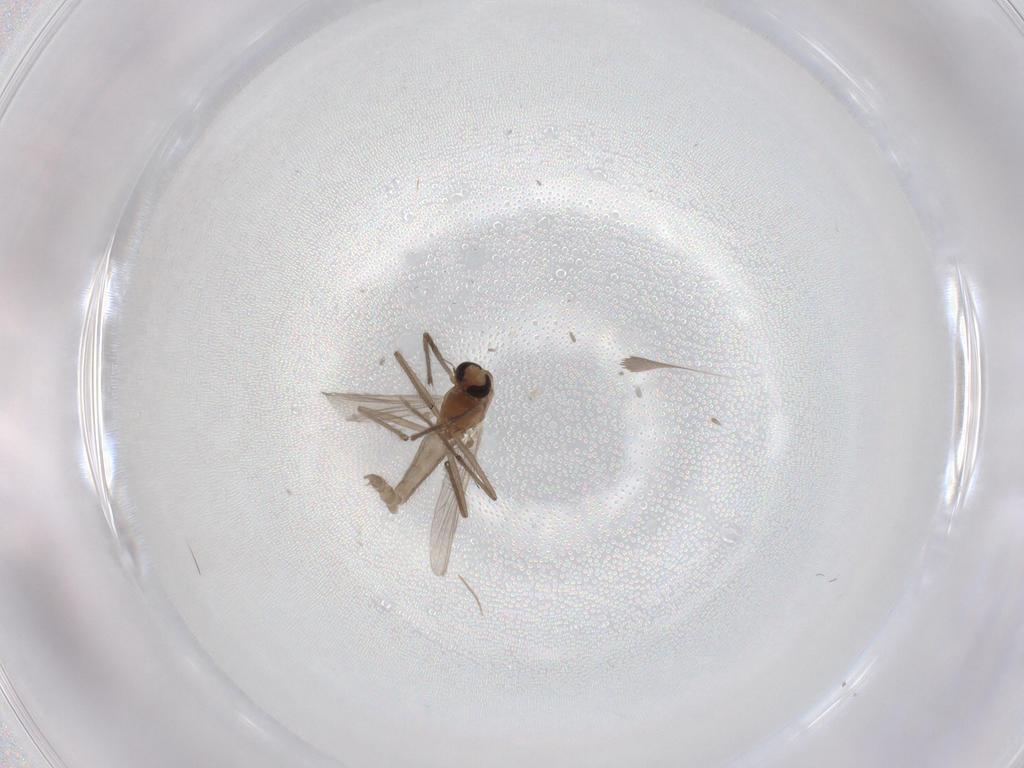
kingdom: Animalia
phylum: Arthropoda
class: Insecta
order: Diptera
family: Chironomidae
